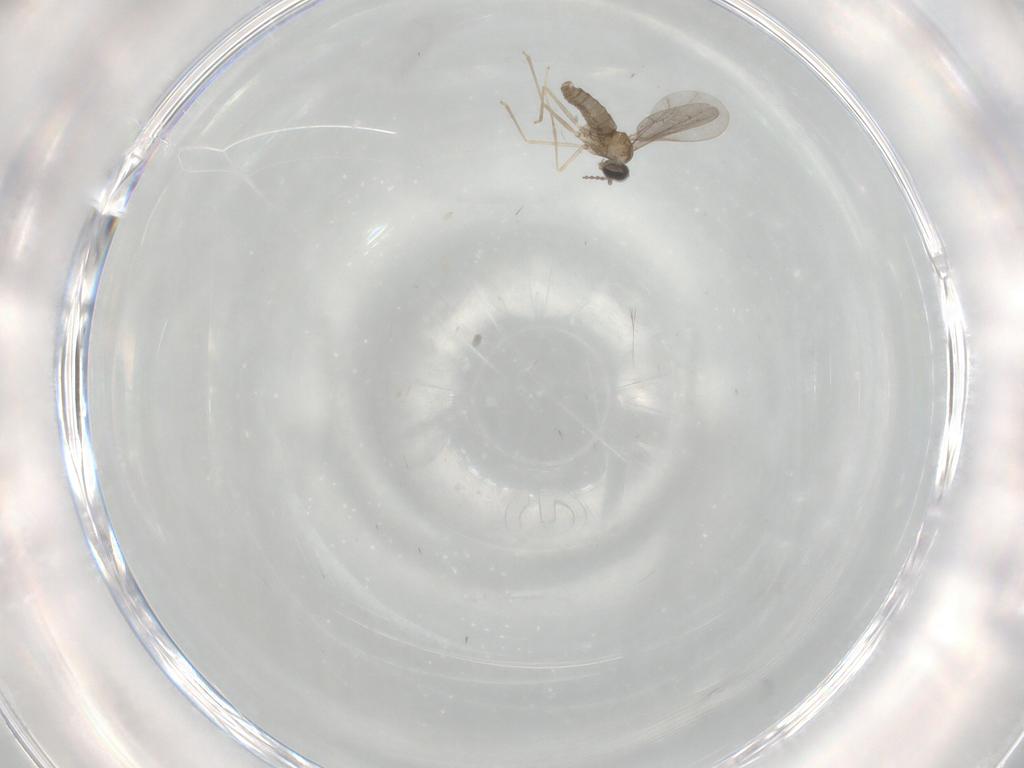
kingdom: Animalia
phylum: Arthropoda
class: Insecta
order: Diptera
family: Cecidomyiidae
